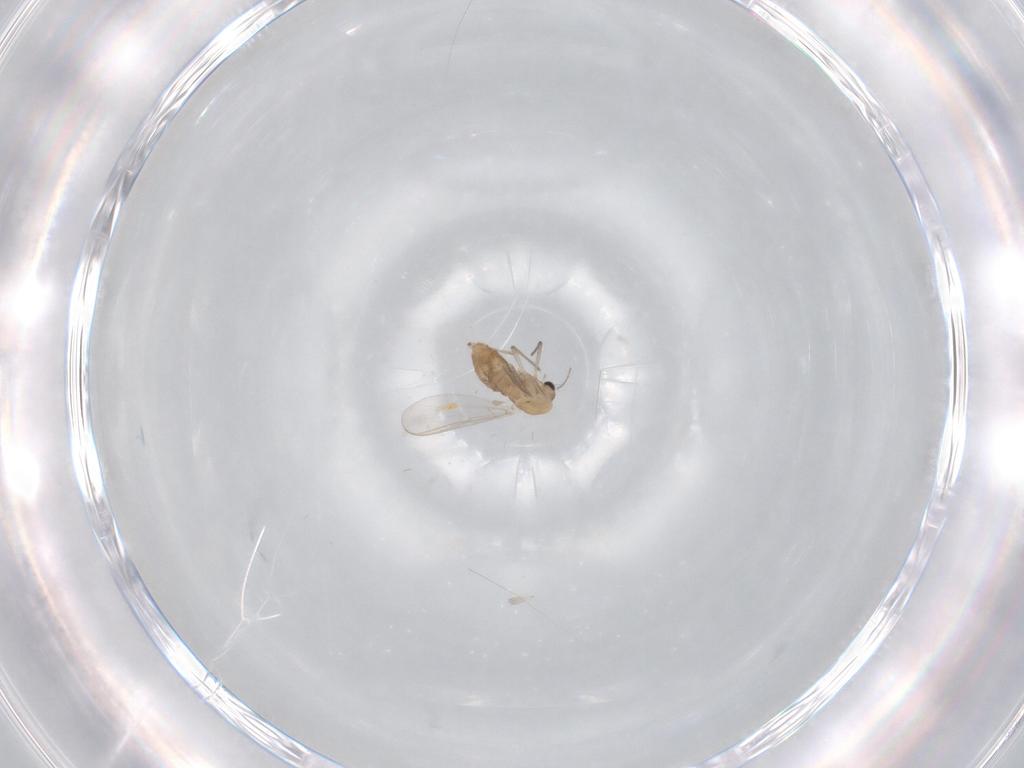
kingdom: Animalia
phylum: Arthropoda
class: Insecta
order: Diptera
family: Chironomidae
